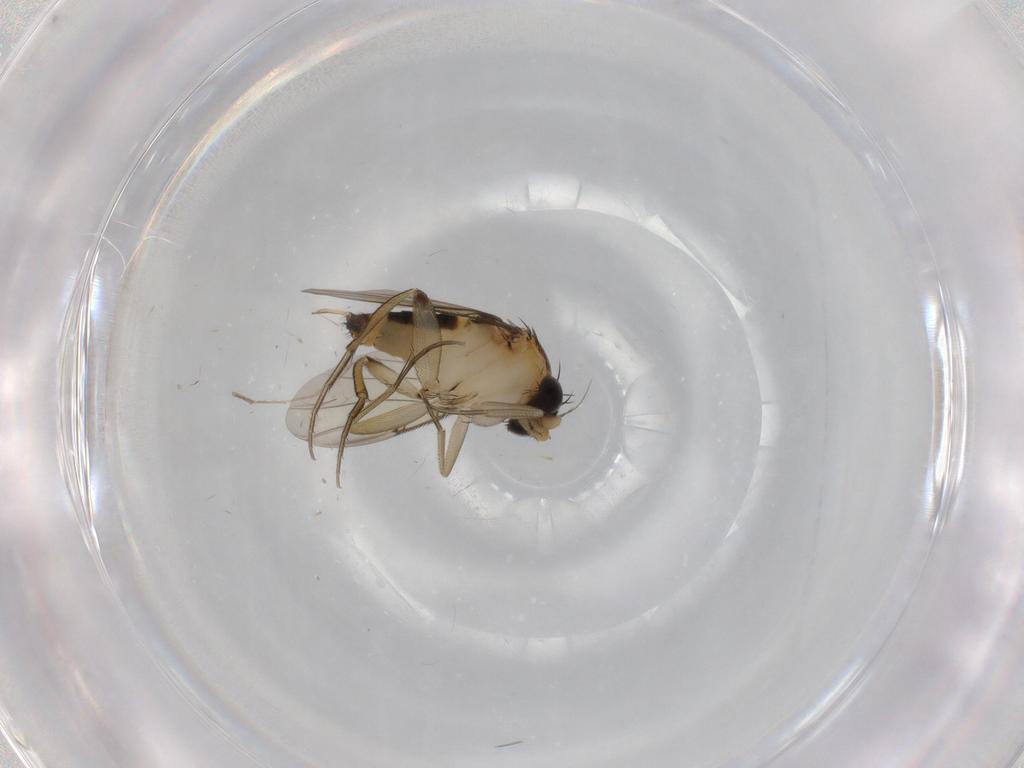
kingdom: Animalia
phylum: Arthropoda
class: Insecta
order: Diptera
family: Phoridae
